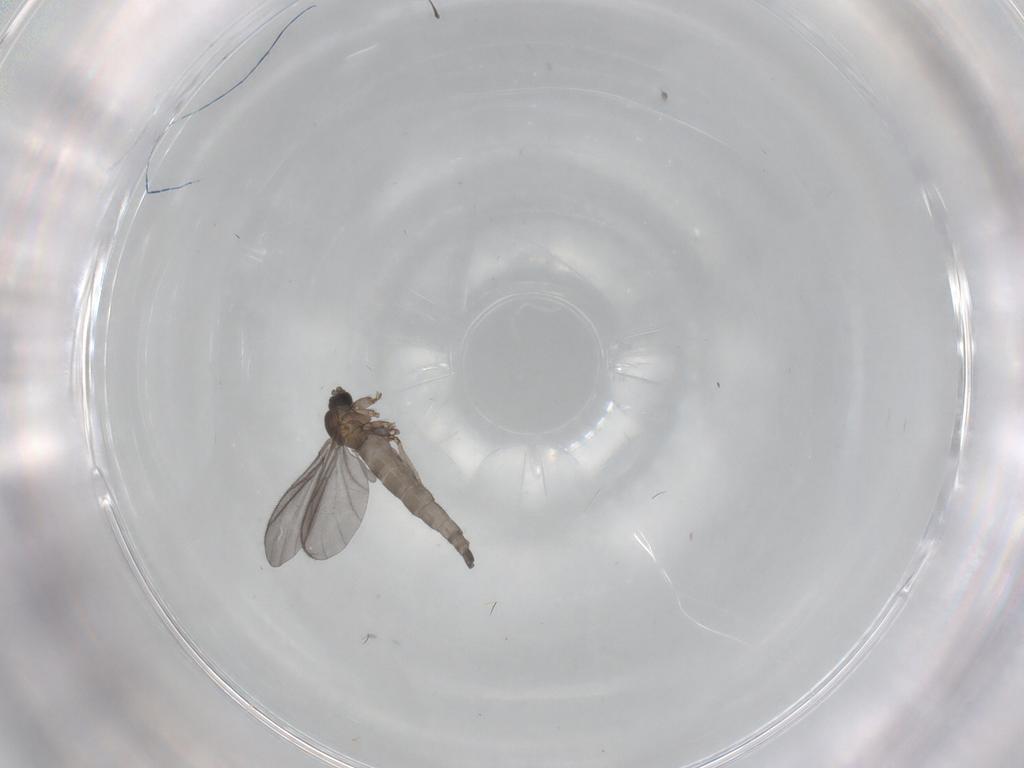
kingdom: Animalia
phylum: Arthropoda
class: Insecta
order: Diptera
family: Sciaridae
